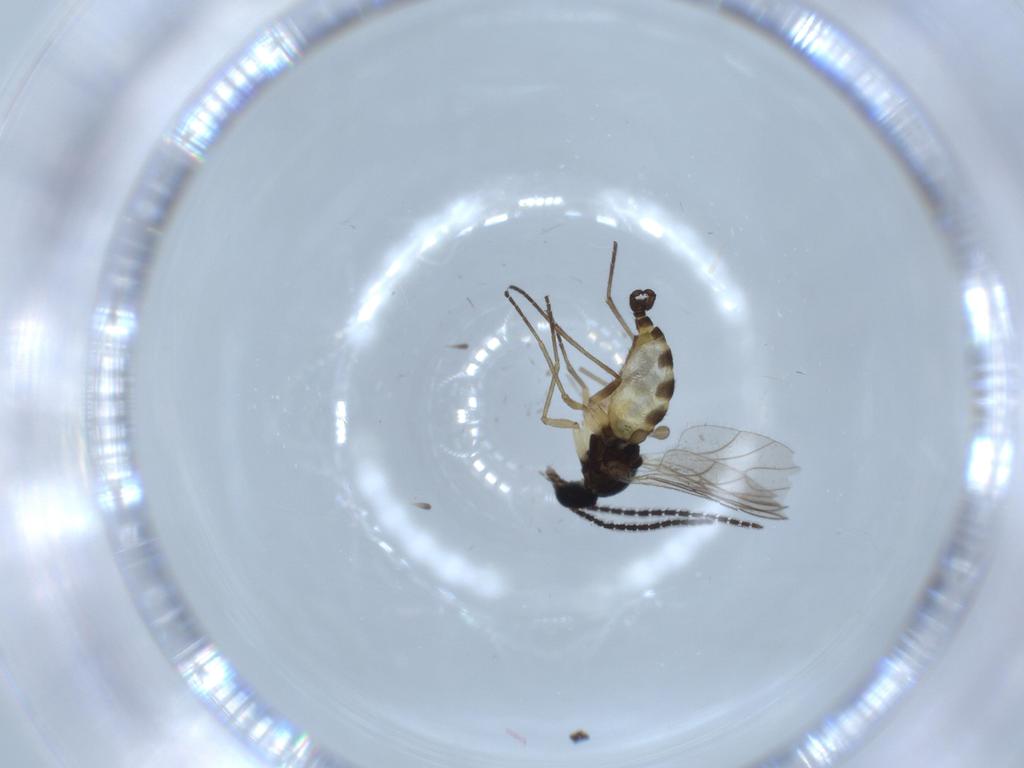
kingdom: Animalia
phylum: Arthropoda
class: Insecta
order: Diptera
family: Sciaridae
